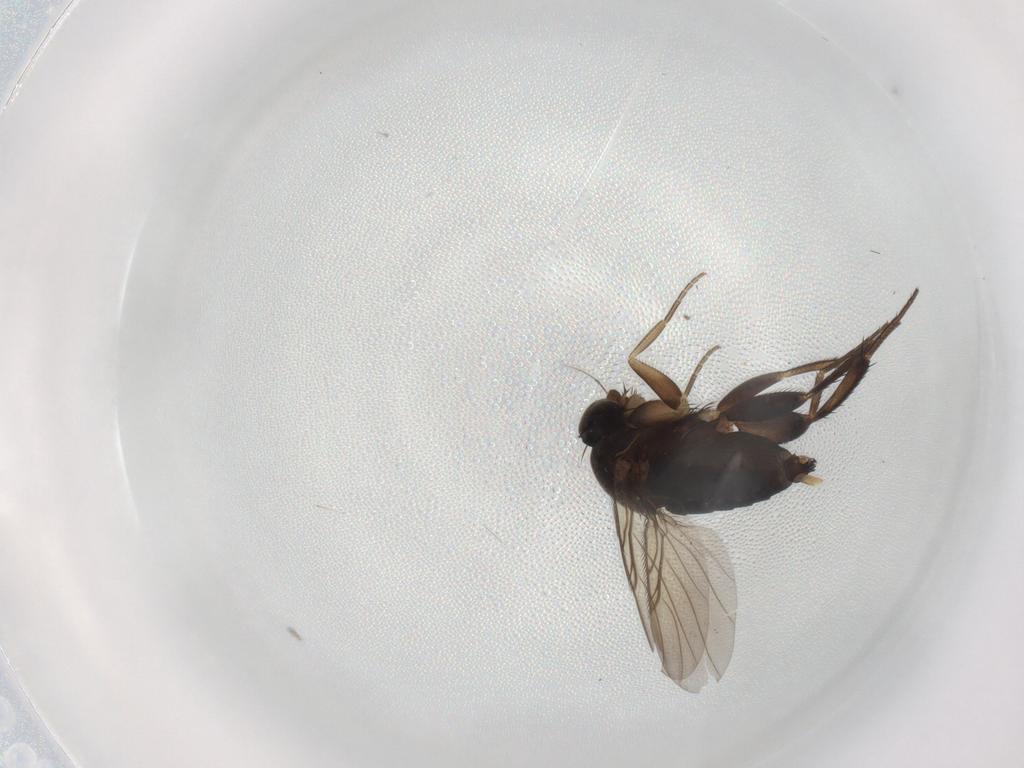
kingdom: Animalia
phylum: Arthropoda
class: Insecta
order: Diptera
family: Phoridae
